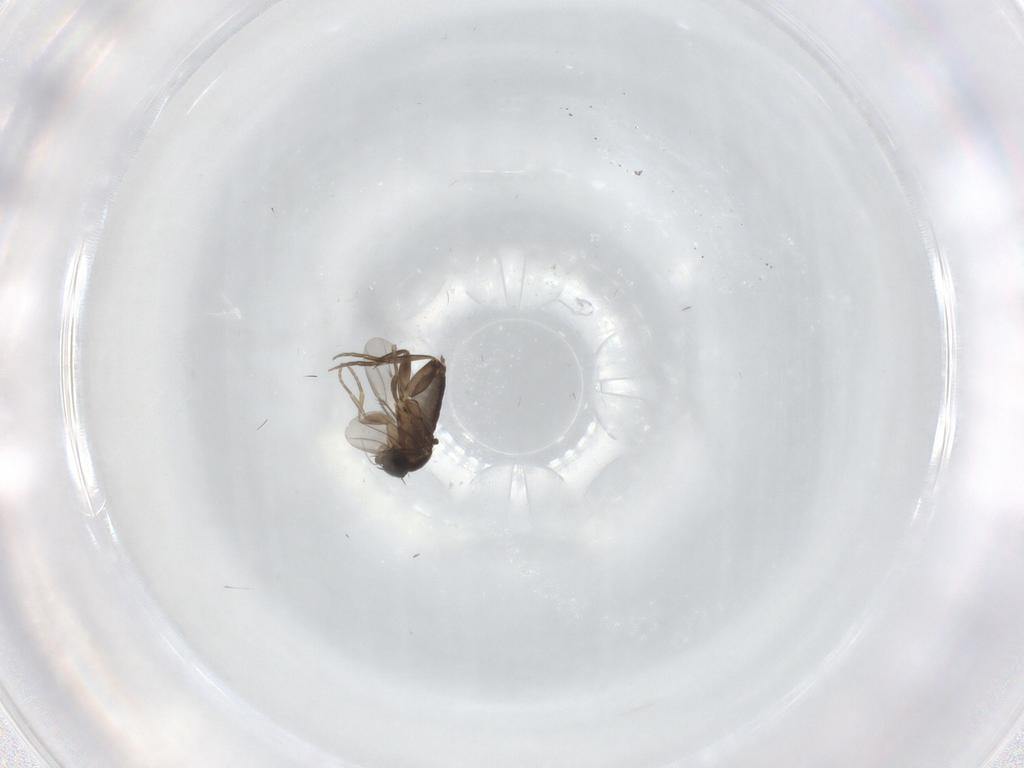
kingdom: Animalia
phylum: Arthropoda
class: Insecta
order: Diptera
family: Phoridae
